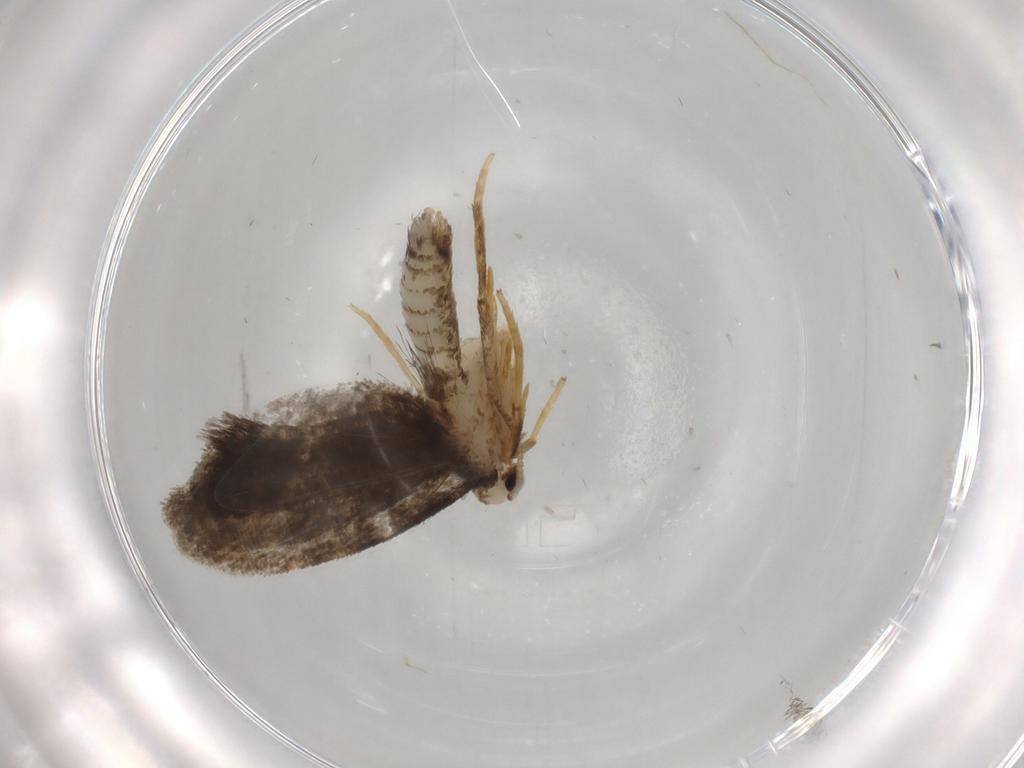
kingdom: Animalia
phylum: Arthropoda
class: Insecta
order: Lepidoptera
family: Psychidae
